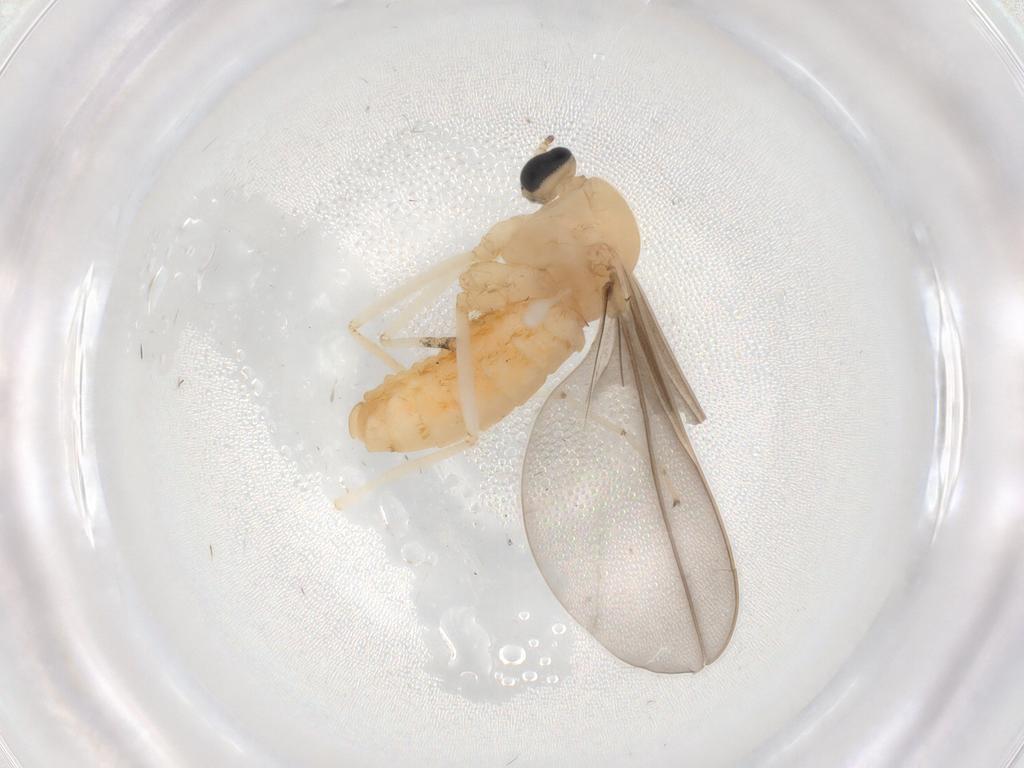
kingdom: Animalia
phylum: Arthropoda
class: Insecta
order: Diptera
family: Cecidomyiidae
